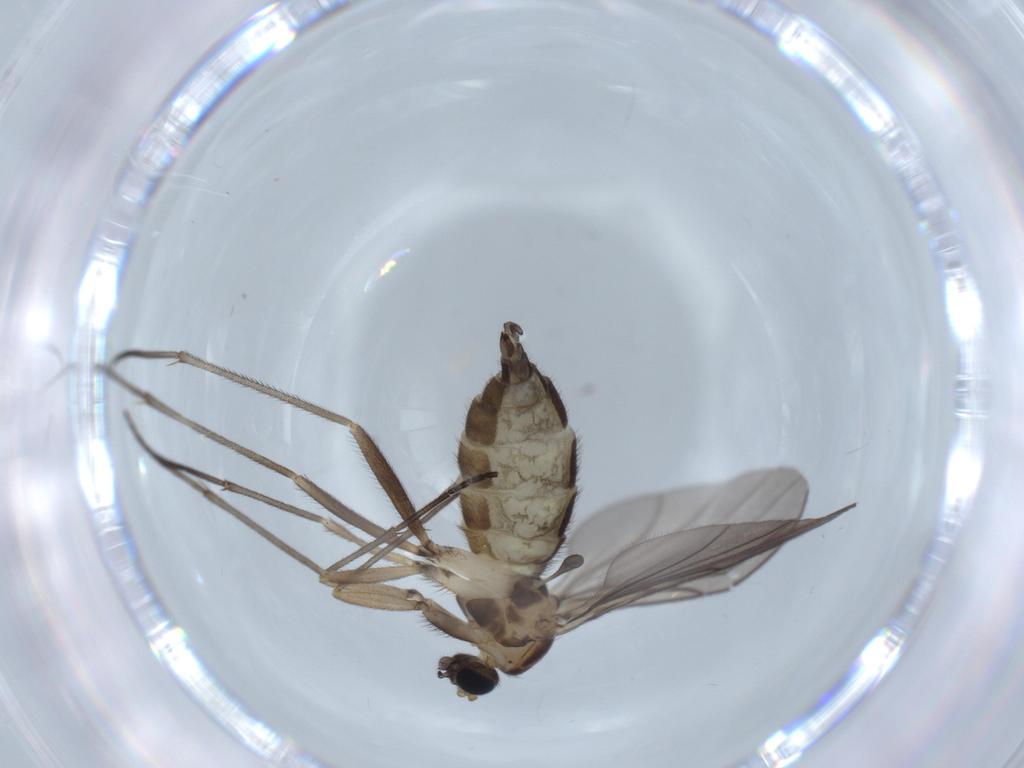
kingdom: Animalia
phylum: Arthropoda
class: Insecta
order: Diptera
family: Sciaridae
